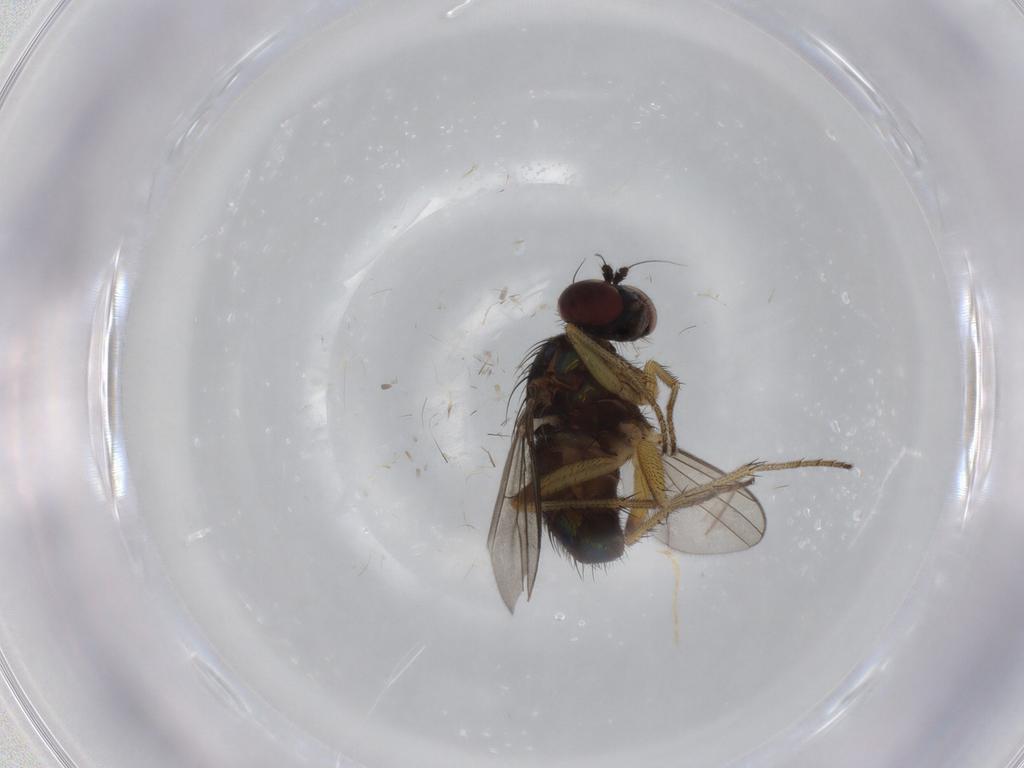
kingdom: Animalia
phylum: Arthropoda
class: Insecta
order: Diptera
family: Dolichopodidae
